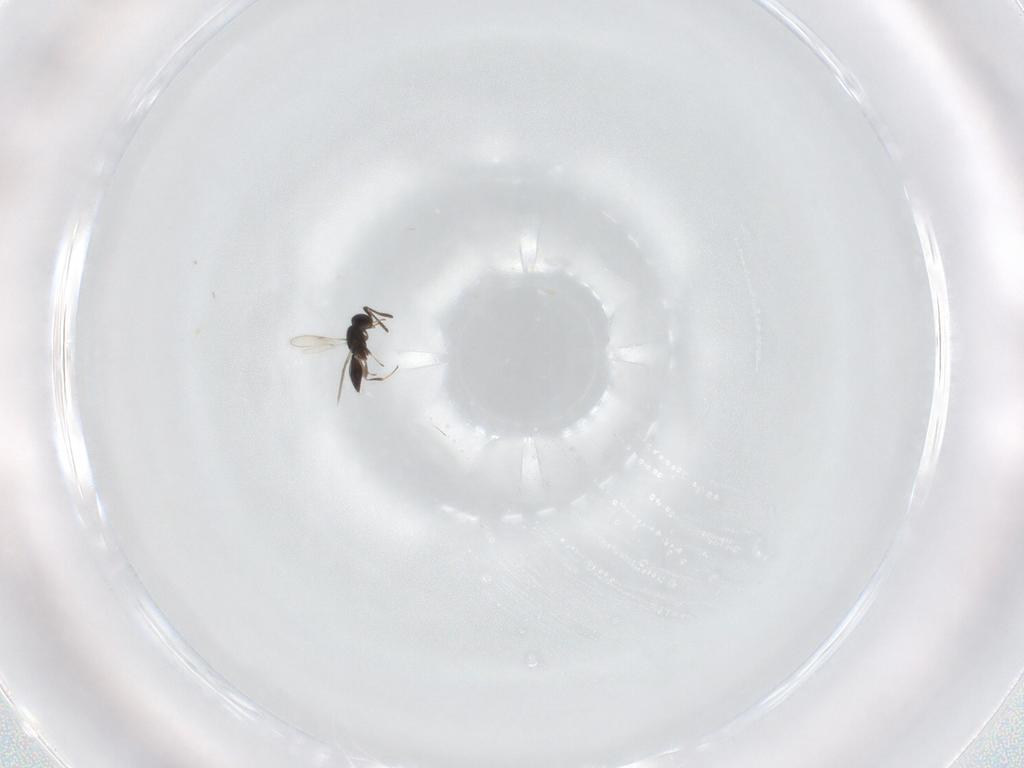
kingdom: Animalia
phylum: Arthropoda
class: Insecta
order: Hymenoptera
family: Scelionidae
